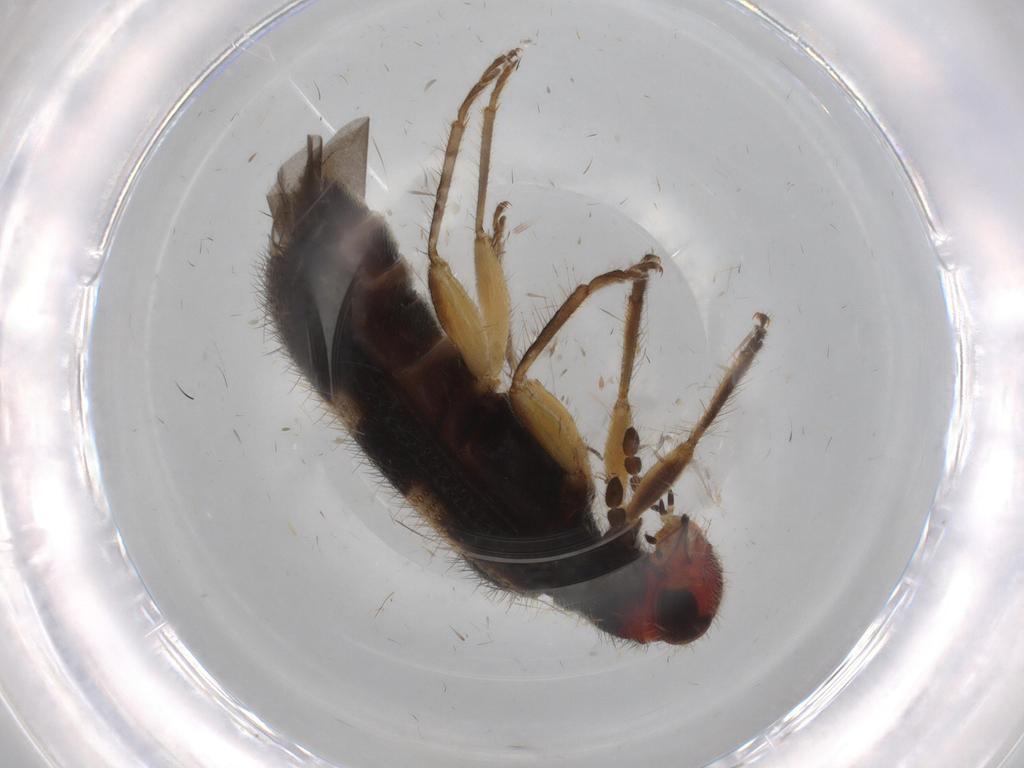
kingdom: Animalia
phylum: Arthropoda
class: Insecta
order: Coleoptera
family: Cleridae
